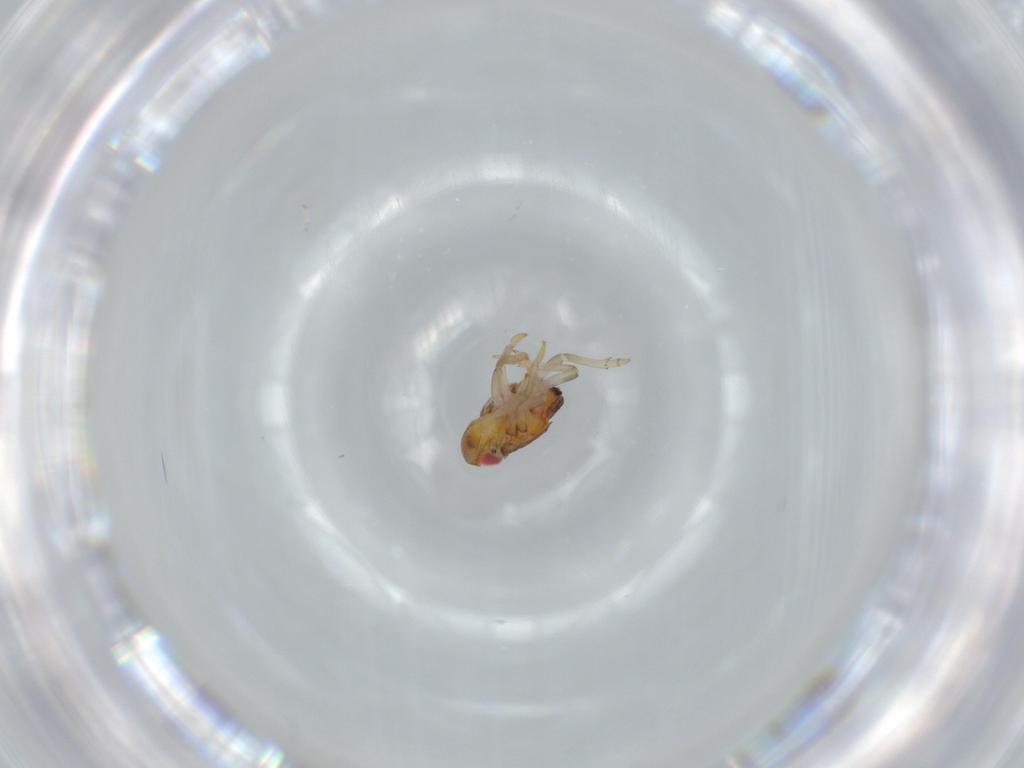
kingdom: Animalia
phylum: Arthropoda
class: Insecta
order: Hemiptera
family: Issidae
